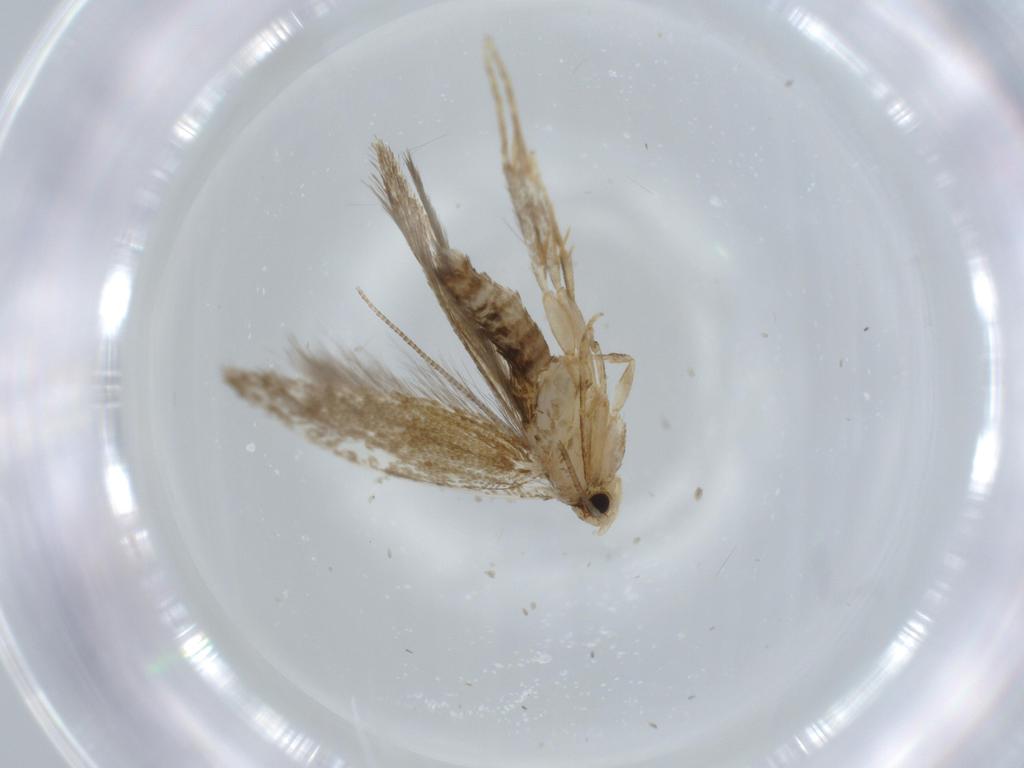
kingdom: Animalia
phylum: Arthropoda
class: Insecta
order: Lepidoptera
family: Tineidae
